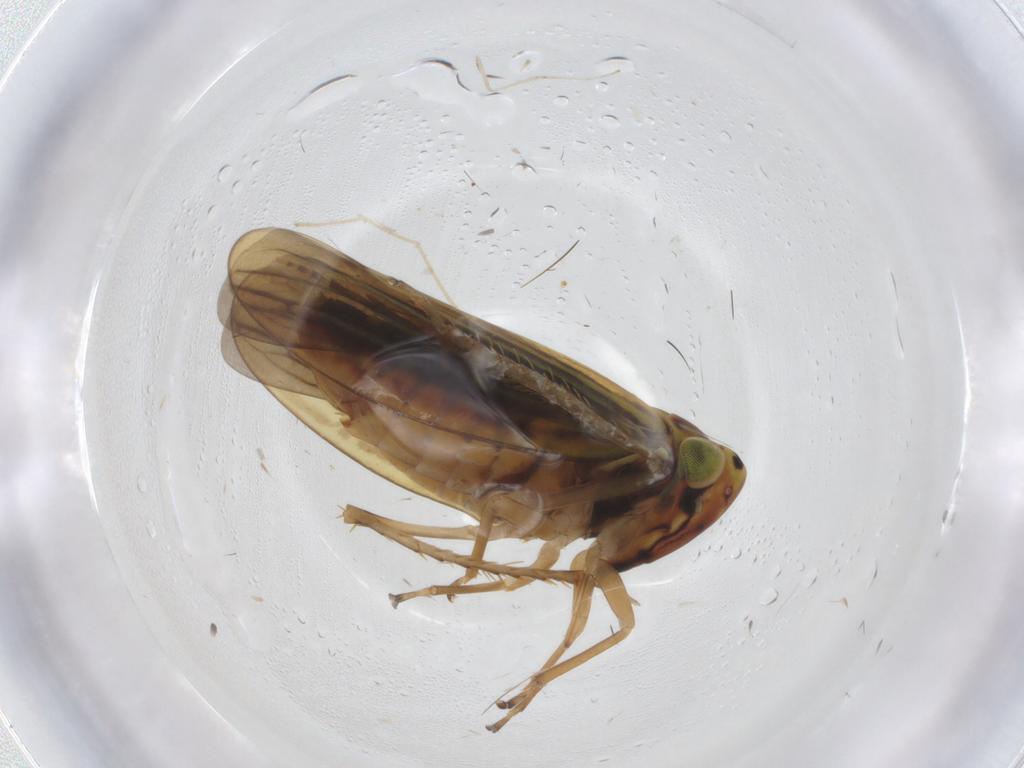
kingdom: Animalia
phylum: Arthropoda
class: Insecta
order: Hemiptera
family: Cicadellidae
